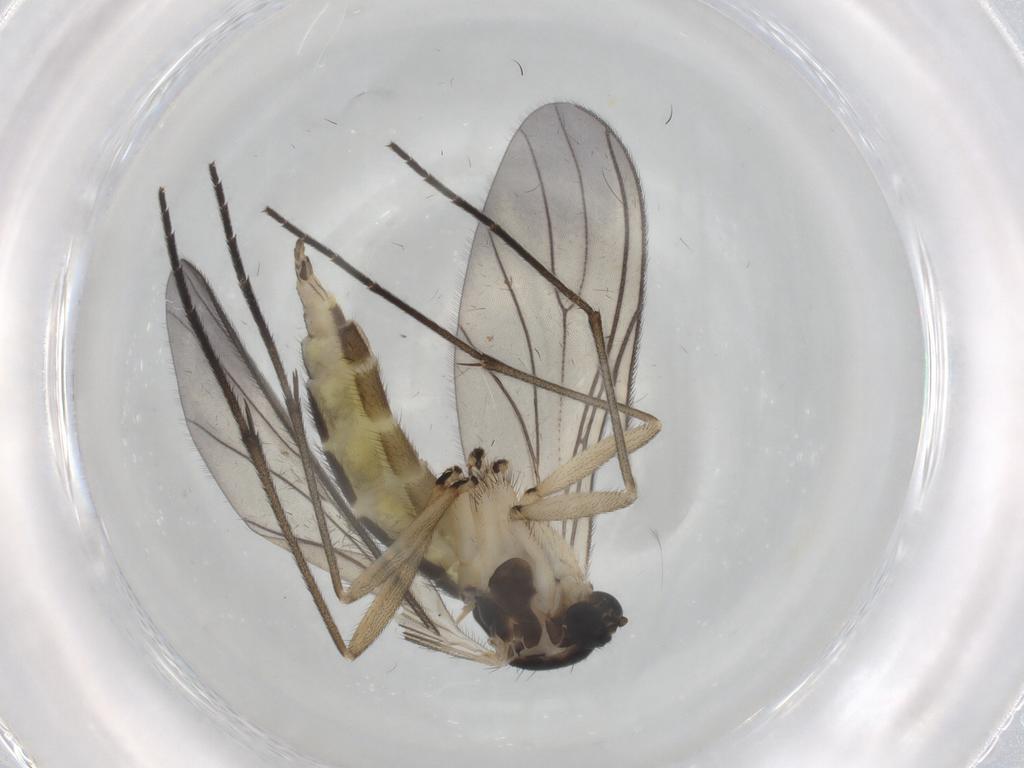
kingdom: Animalia
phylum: Arthropoda
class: Insecta
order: Diptera
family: Sciaridae
